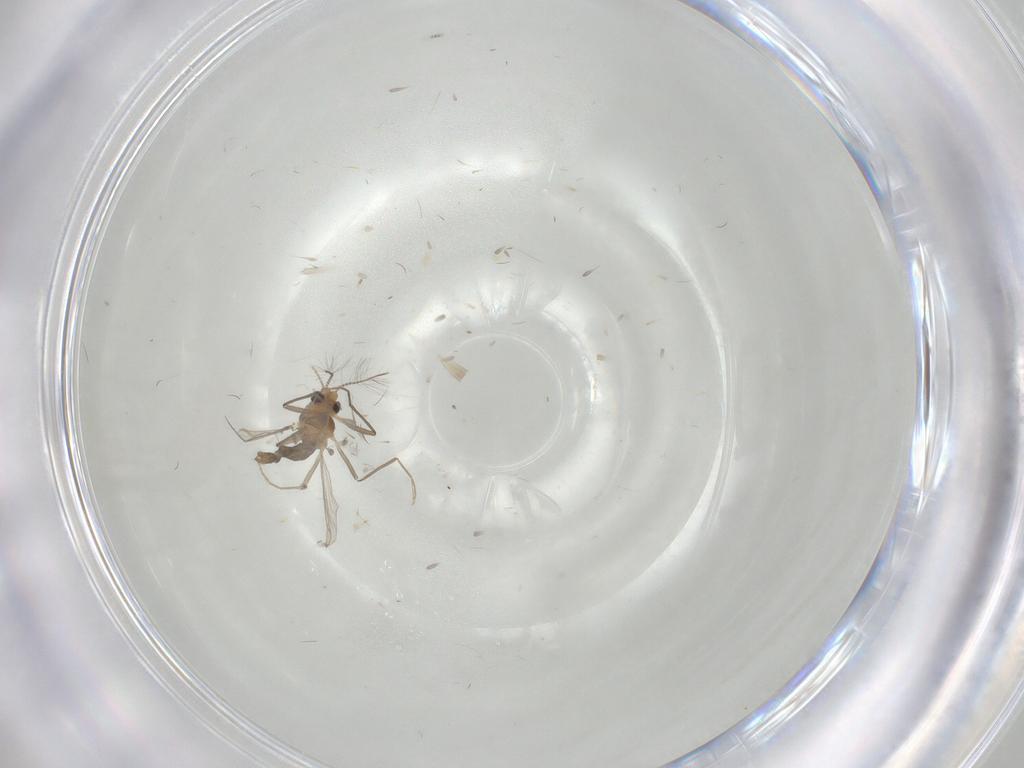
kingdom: Animalia
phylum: Arthropoda
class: Insecta
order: Diptera
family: Chironomidae
